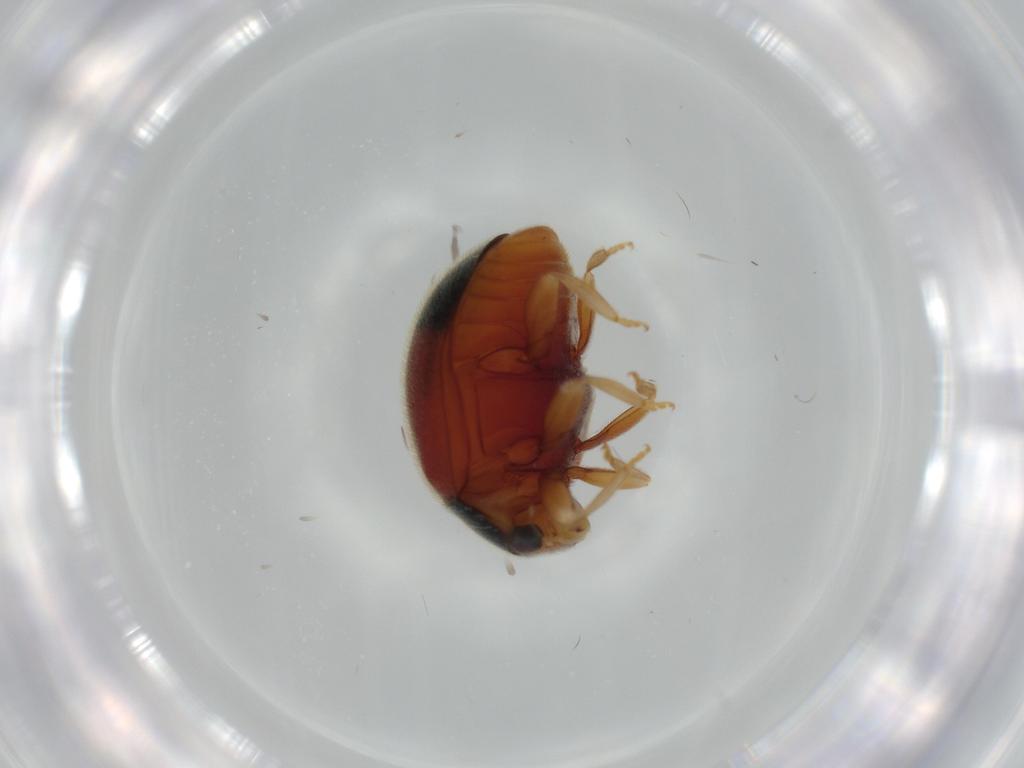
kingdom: Animalia
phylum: Arthropoda
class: Insecta
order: Coleoptera
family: Coccinellidae
